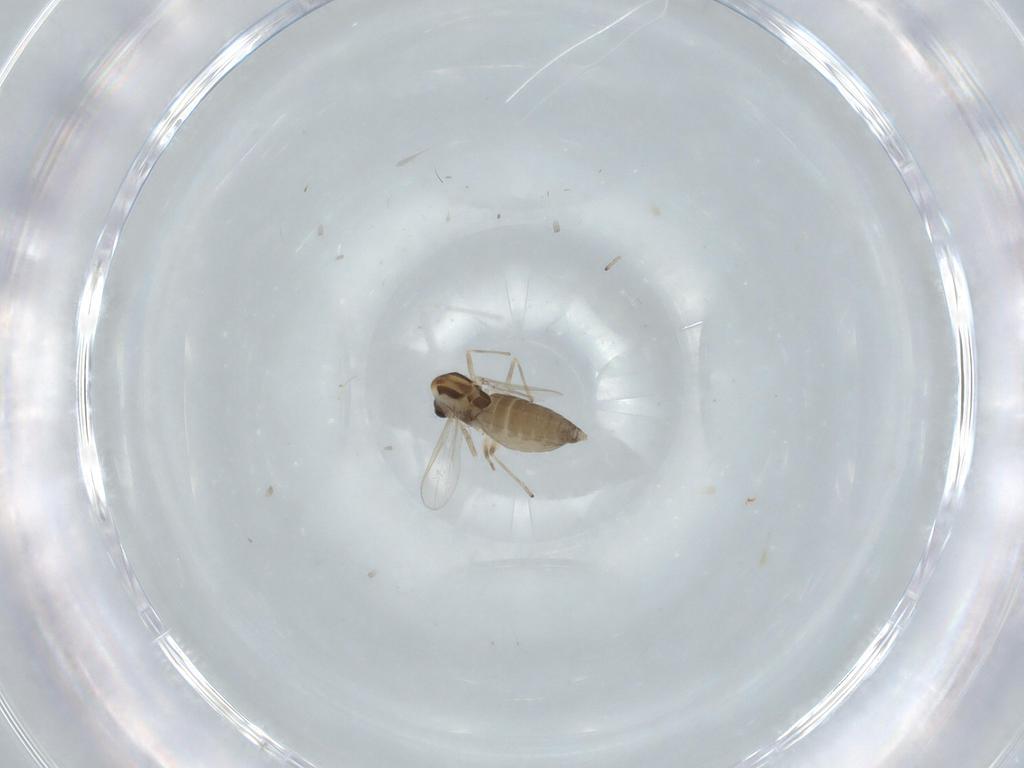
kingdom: Animalia
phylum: Arthropoda
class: Insecta
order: Diptera
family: Chironomidae
